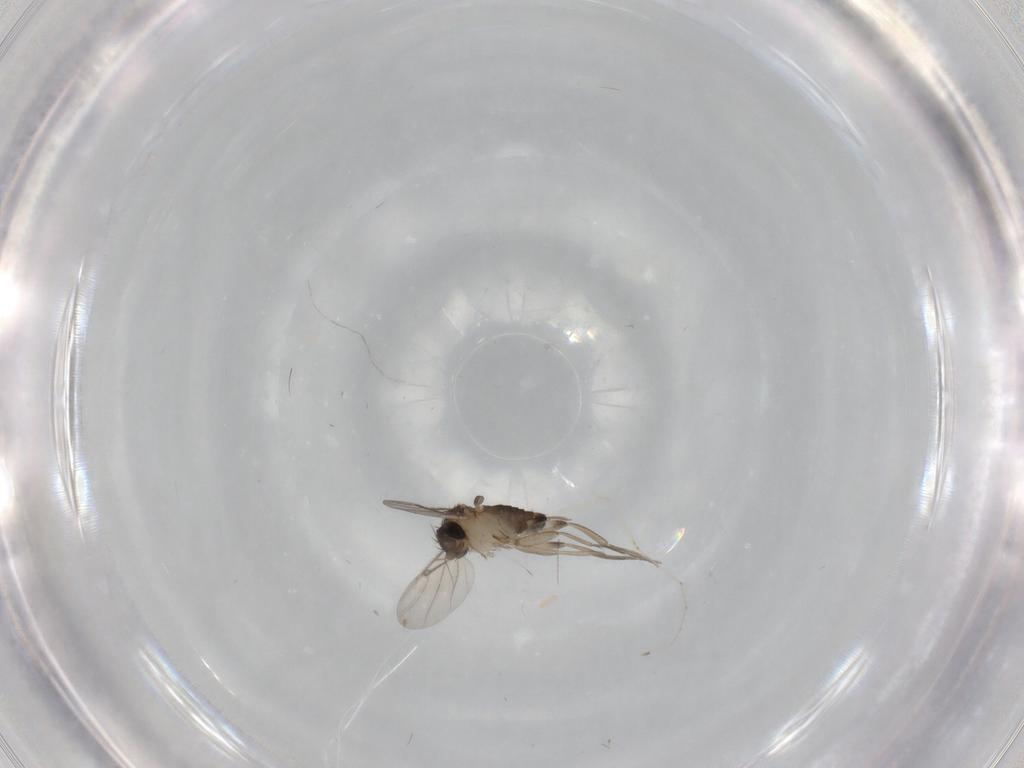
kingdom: Animalia
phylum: Arthropoda
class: Insecta
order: Diptera
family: Phoridae
